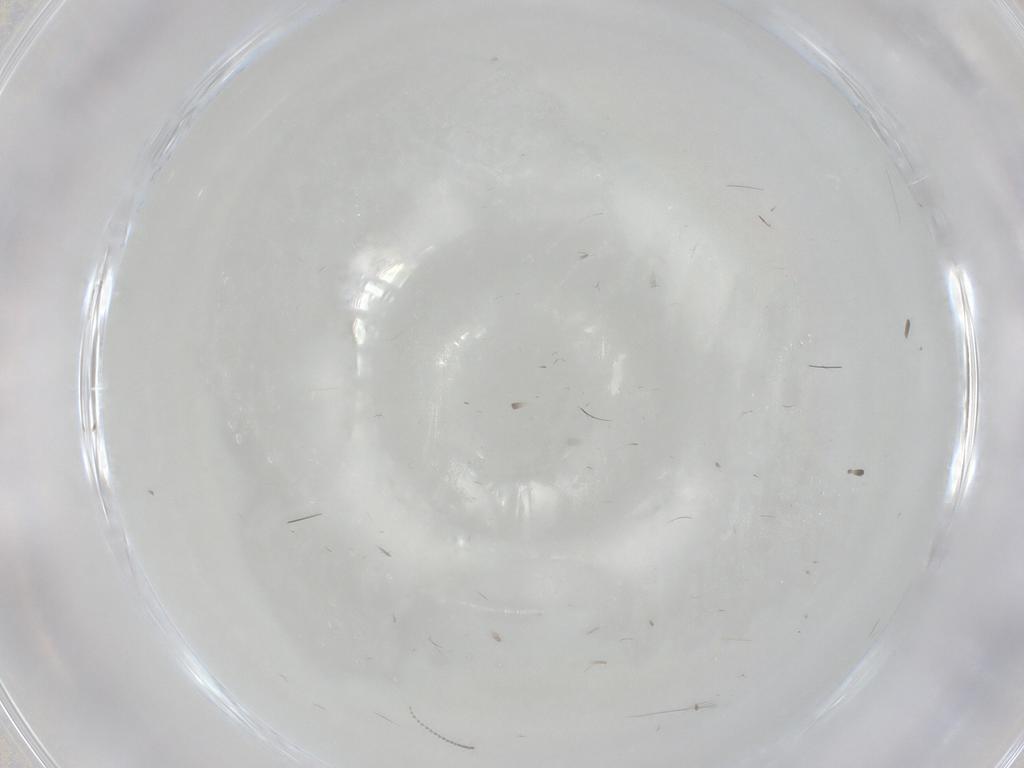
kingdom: Animalia
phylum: Arthropoda
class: Insecta
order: Diptera
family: Cecidomyiidae
